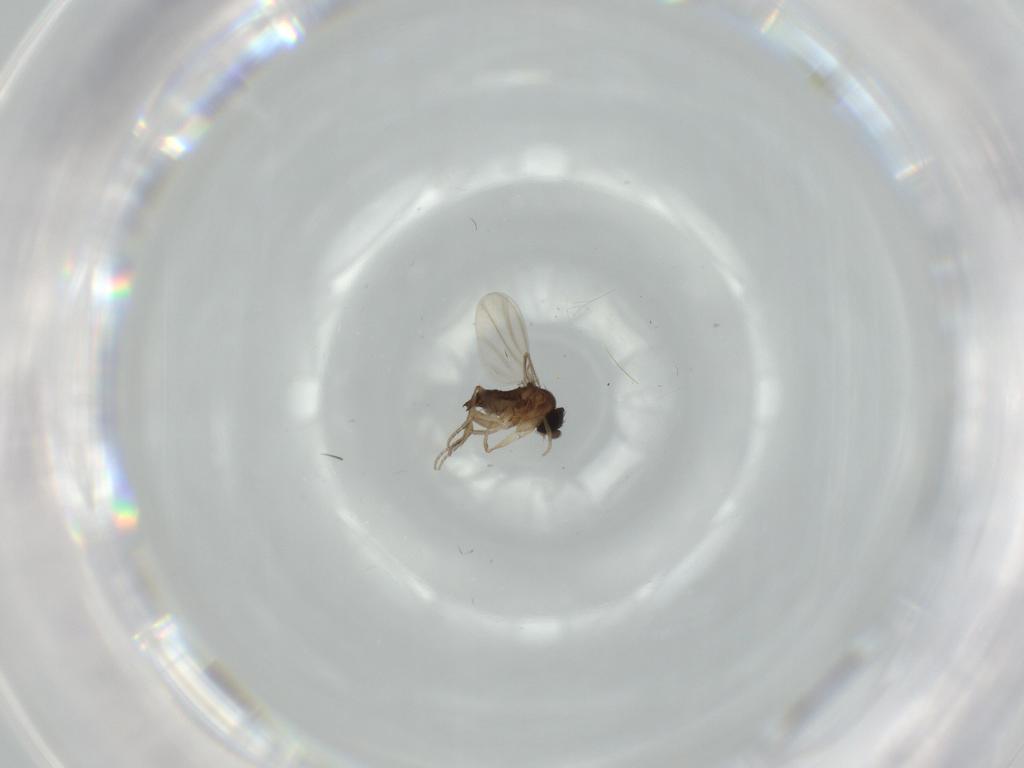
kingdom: Animalia
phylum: Arthropoda
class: Insecta
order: Diptera
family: Phoridae
